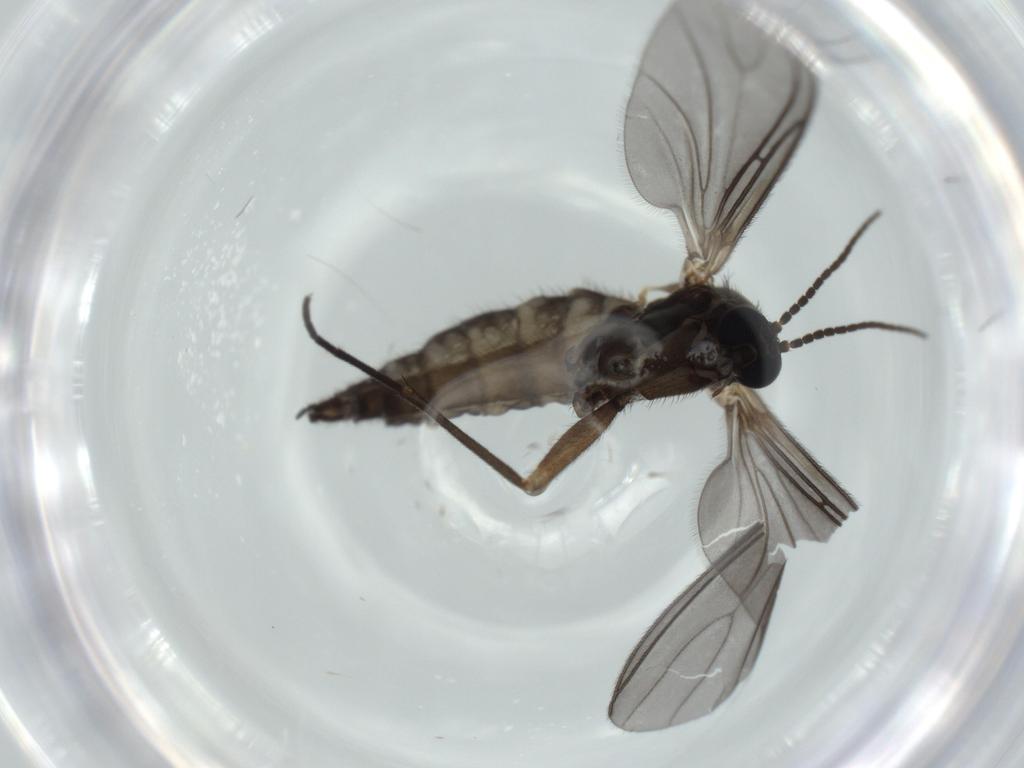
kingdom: Animalia
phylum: Arthropoda
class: Insecta
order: Diptera
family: Sciaridae
